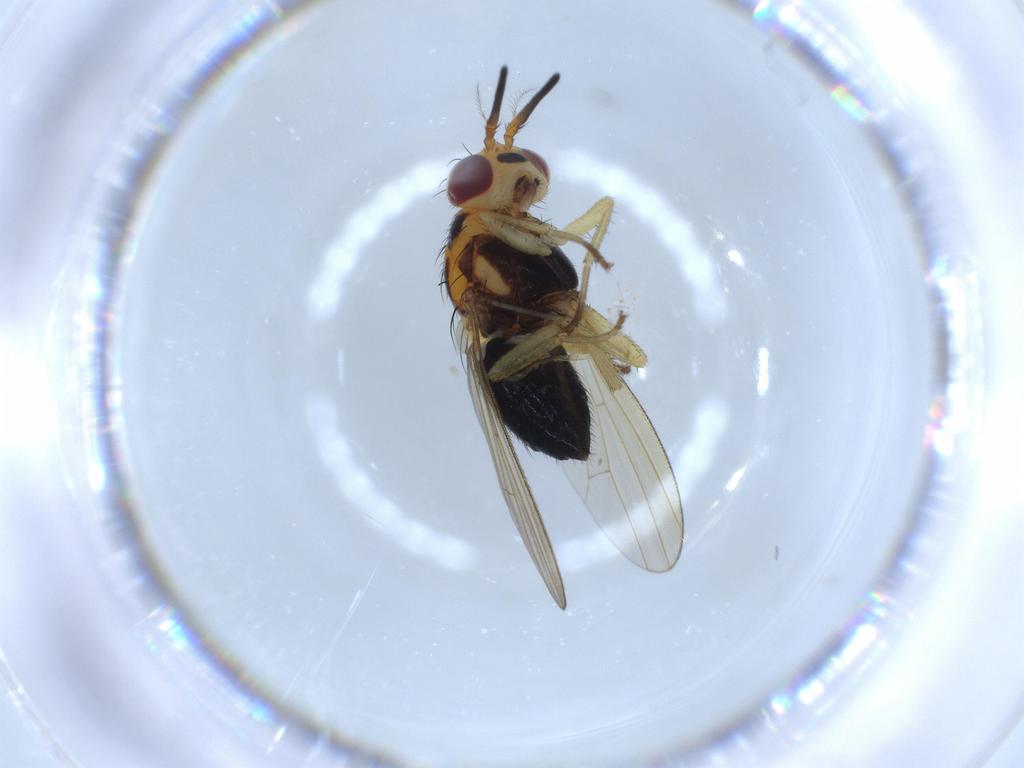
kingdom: Animalia
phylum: Arthropoda
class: Insecta
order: Diptera
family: Lauxaniidae
